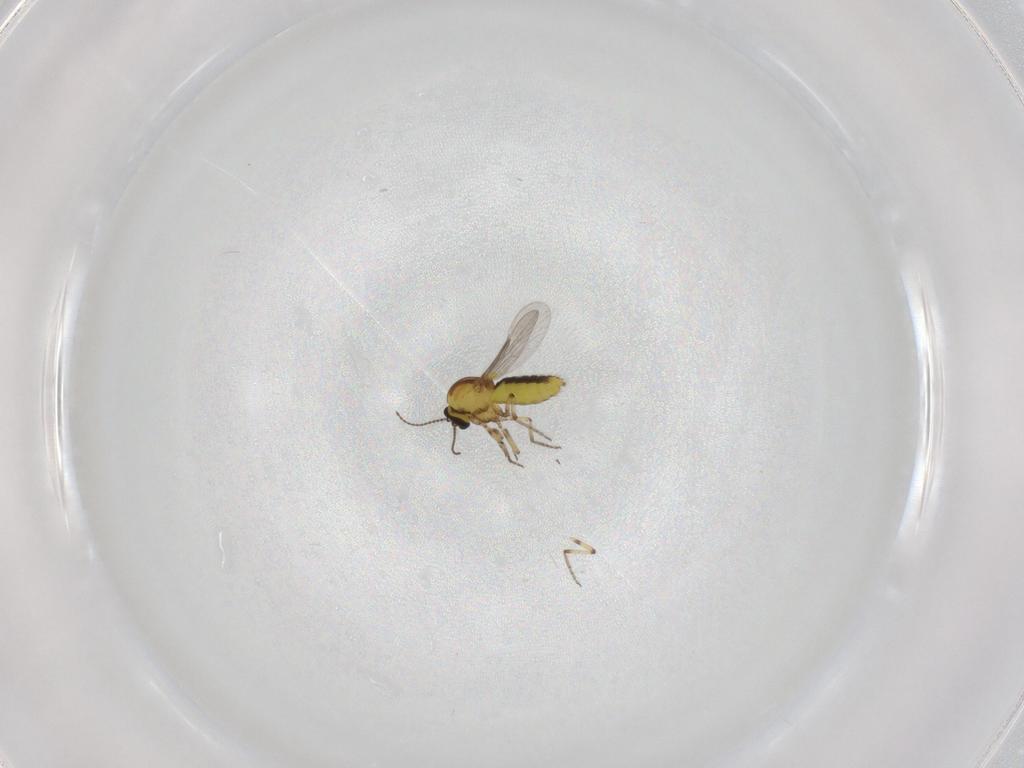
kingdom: Animalia
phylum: Arthropoda
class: Insecta
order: Diptera
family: Ceratopogonidae
